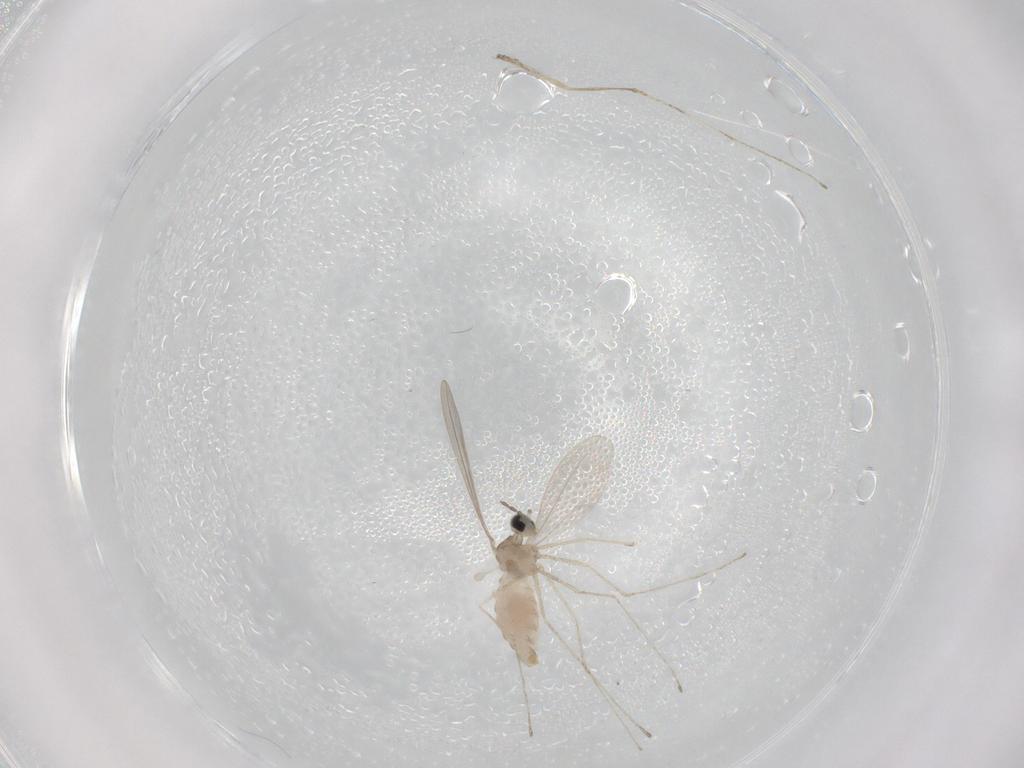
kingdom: Animalia
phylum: Arthropoda
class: Insecta
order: Diptera
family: Cecidomyiidae
